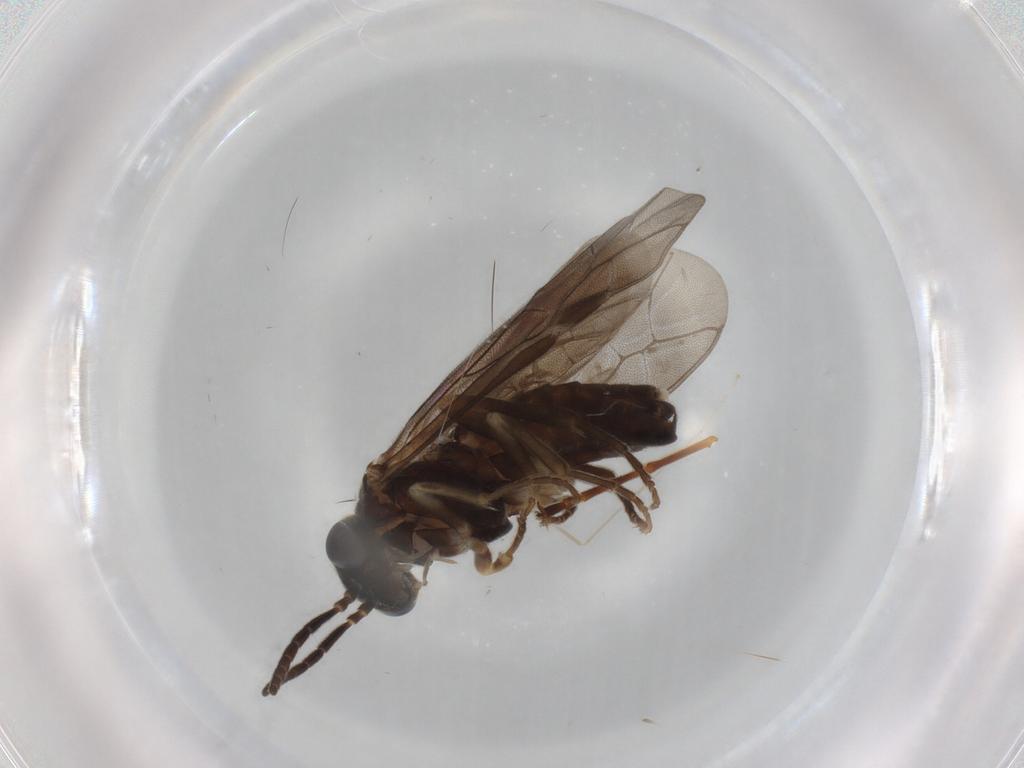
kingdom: Animalia
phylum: Arthropoda
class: Insecta
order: Hymenoptera
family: Ichneumonidae
